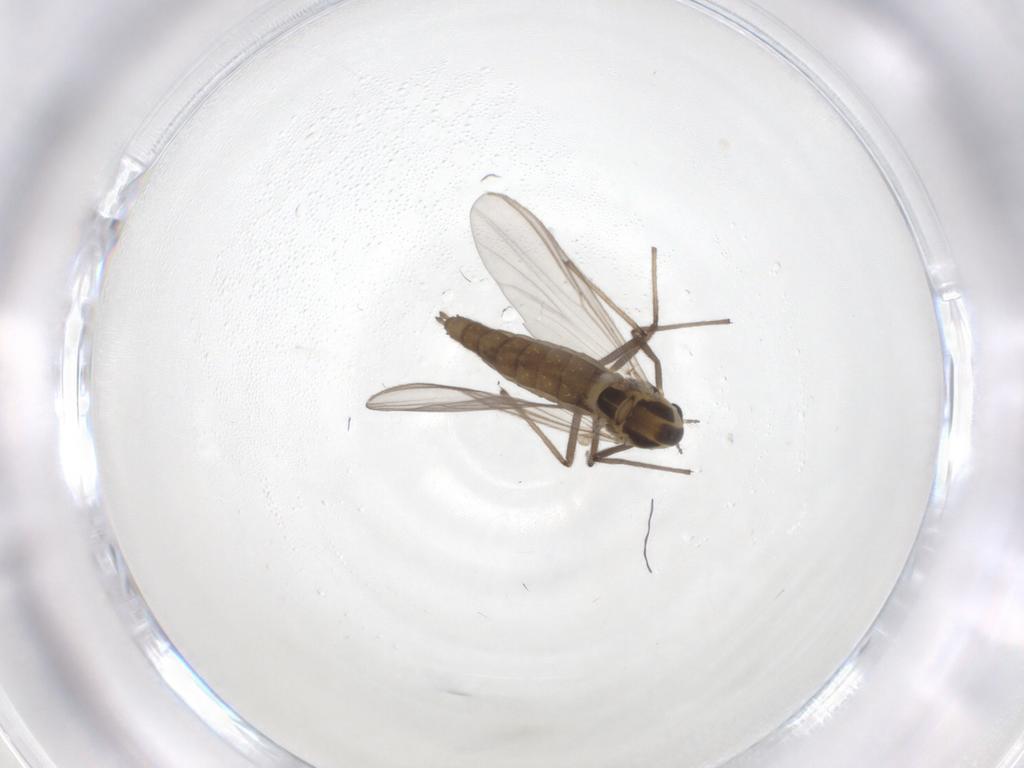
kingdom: Animalia
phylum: Arthropoda
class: Insecta
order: Diptera
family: Chironomidae
